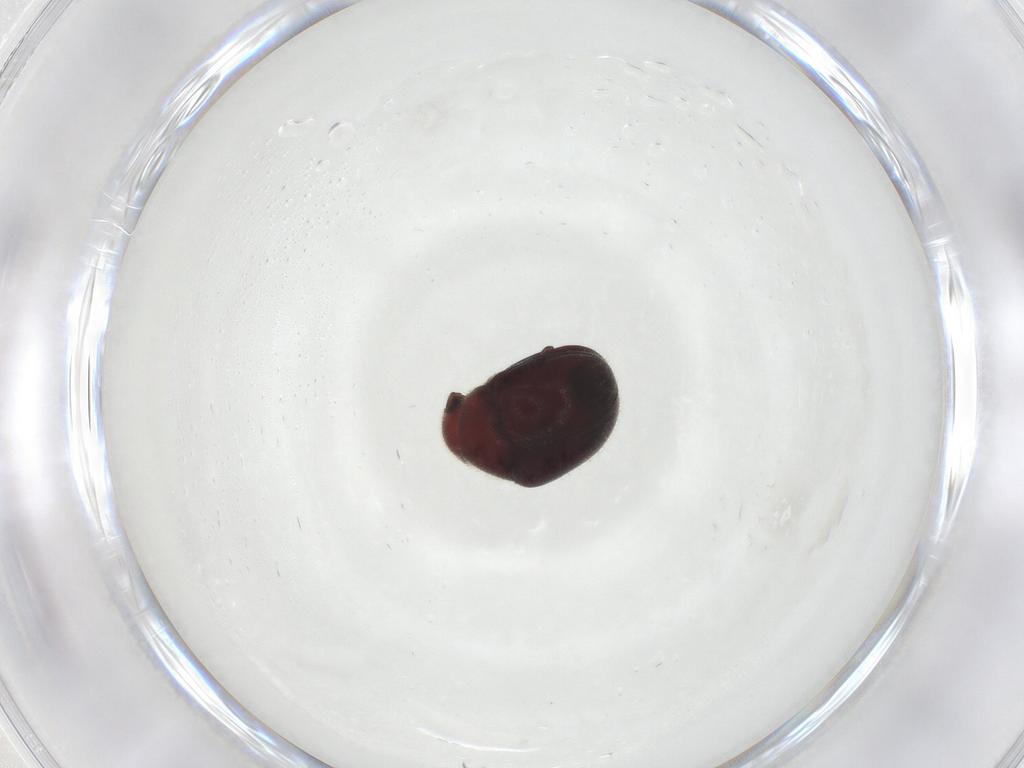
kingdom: Animalia
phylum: Arthropoda
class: Insecta
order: Coleoptera
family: Ptinidae
